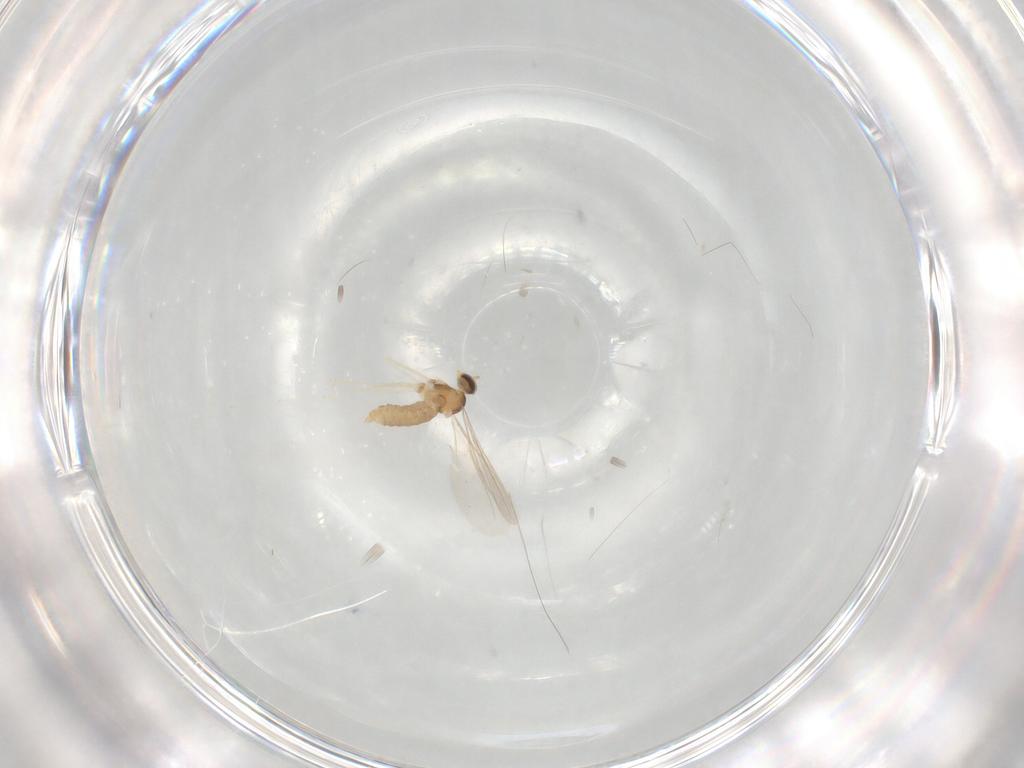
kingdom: Animalia
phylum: Arthropoda
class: Insecta
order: Diptera
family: Cecidomyiidae
